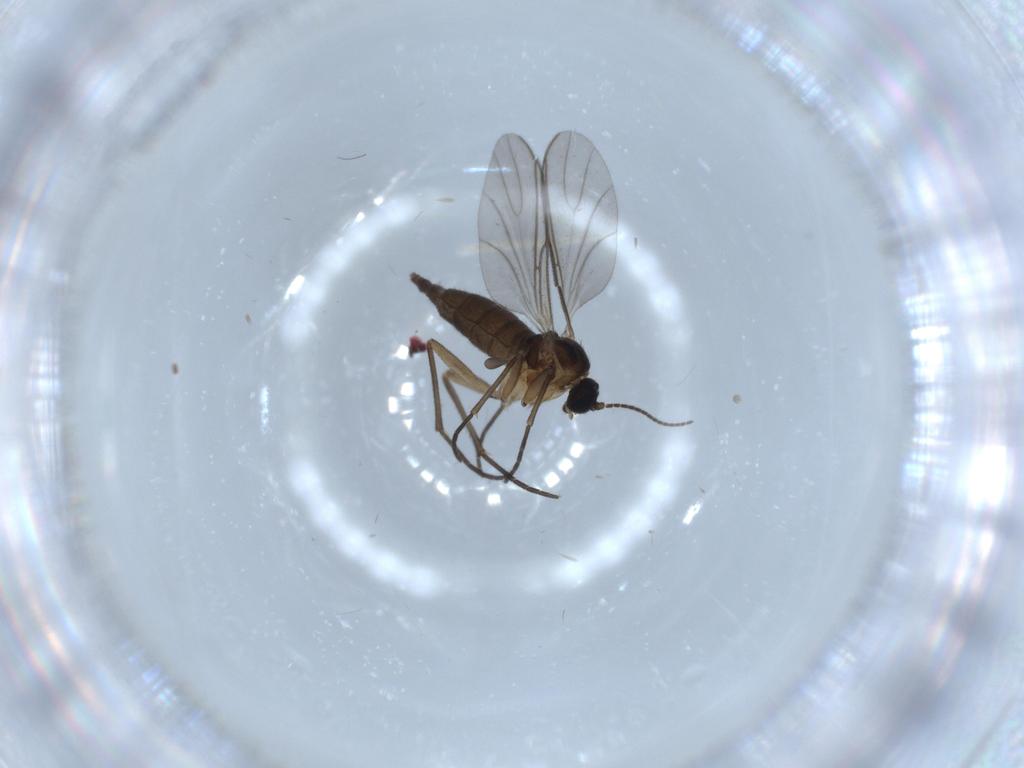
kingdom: Animalia
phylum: Arthropoda
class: Insecta
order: Diptera
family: Sciaridae
